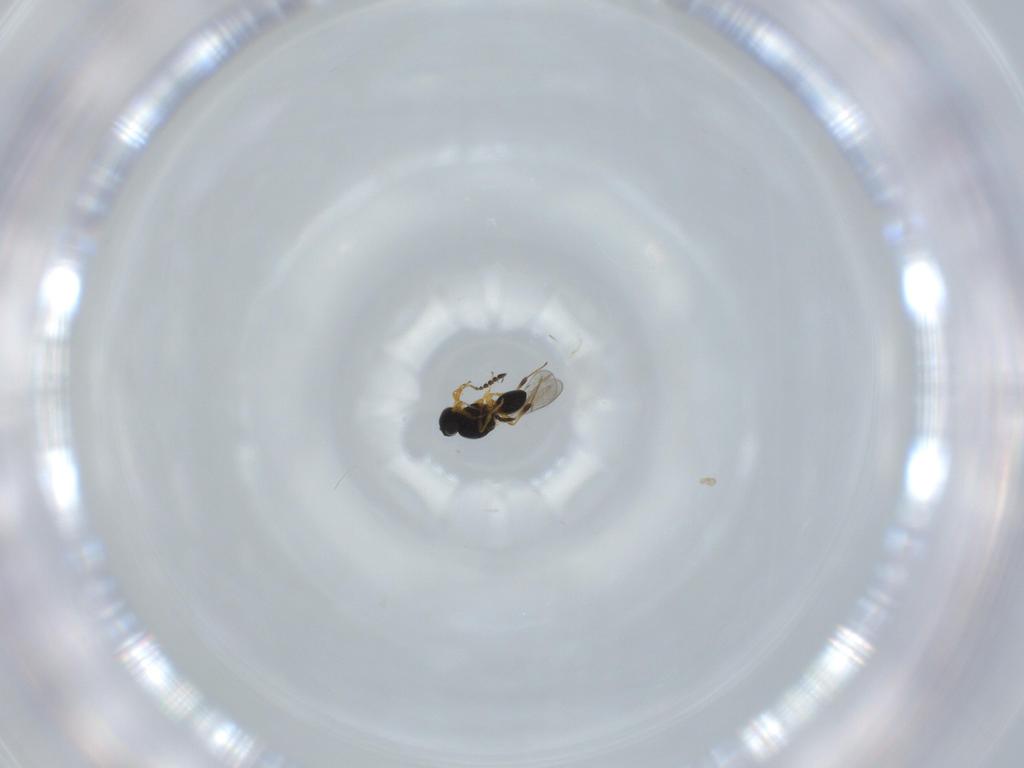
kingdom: Animalia
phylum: Arthropoda
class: Insecta
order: Hymenoptera
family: Platygastridae
